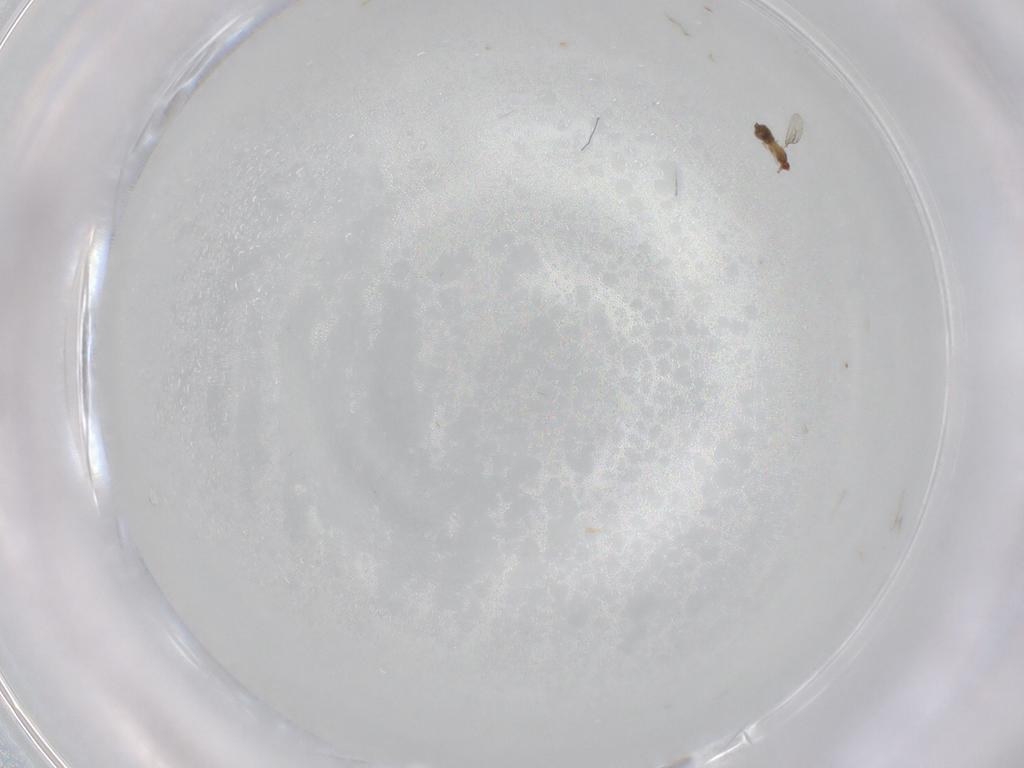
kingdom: Animalia
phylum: Arthropoda
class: Insecta
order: Diptera
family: Cecidomyiidae
